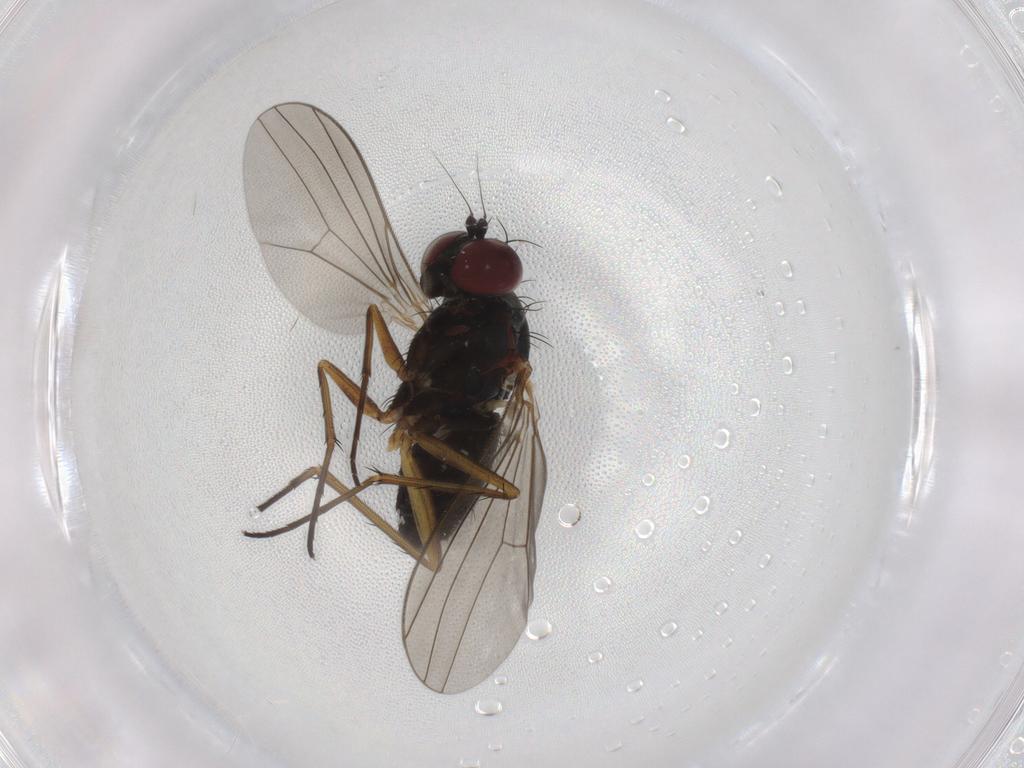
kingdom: Animalia
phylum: Arthropoda
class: Insecta
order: Diptera
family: Dolichopodidae
